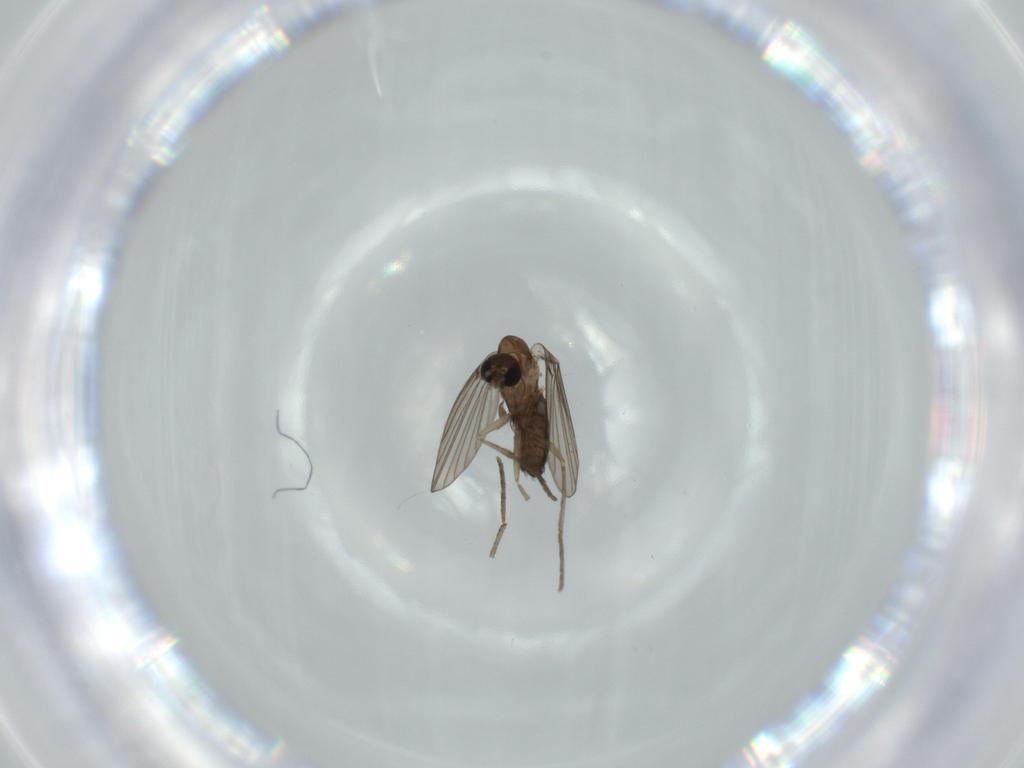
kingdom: Animalia
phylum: Arthropoda
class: Insecta
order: Diptera
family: Psychodidae
